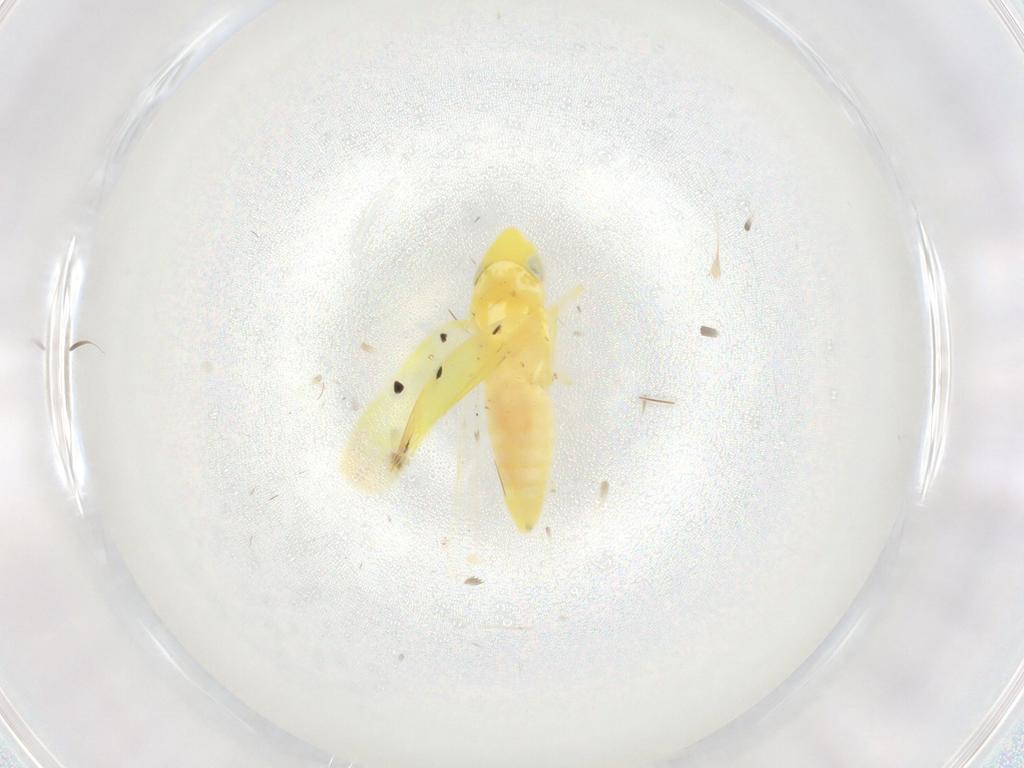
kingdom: Animalia
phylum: Arthropoda
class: Insecta
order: Hemiptera
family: Cicadellidae
